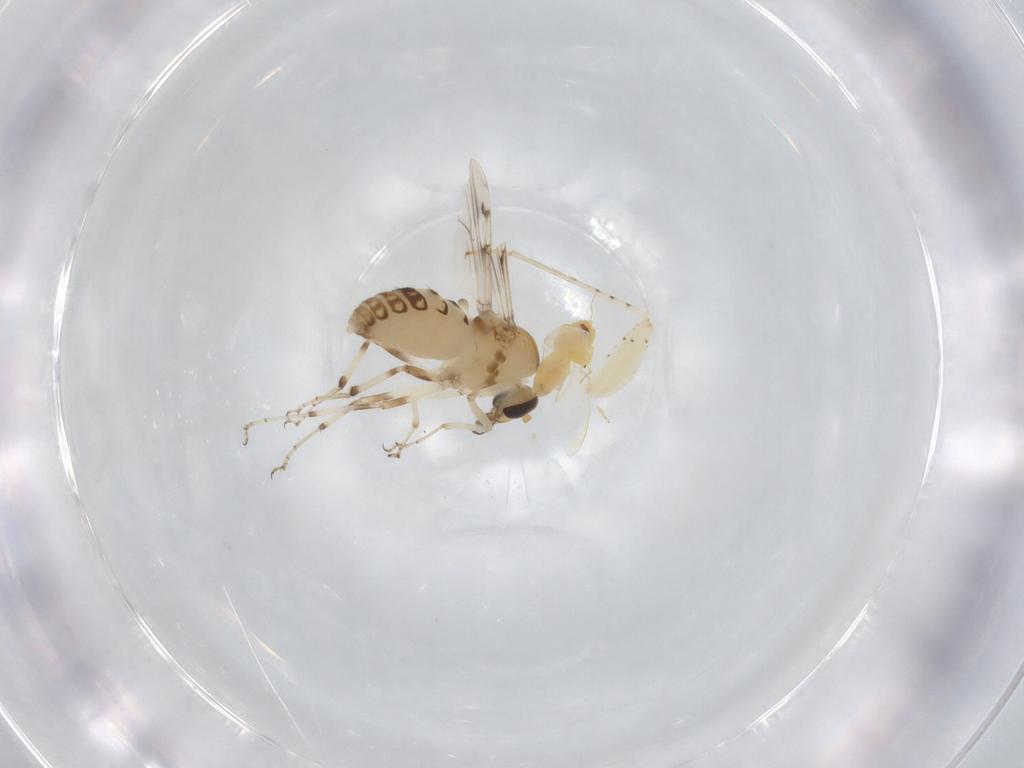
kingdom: Animalia
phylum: Arthropoda
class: Insecta
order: Diptera
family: Ceratopogonidae
